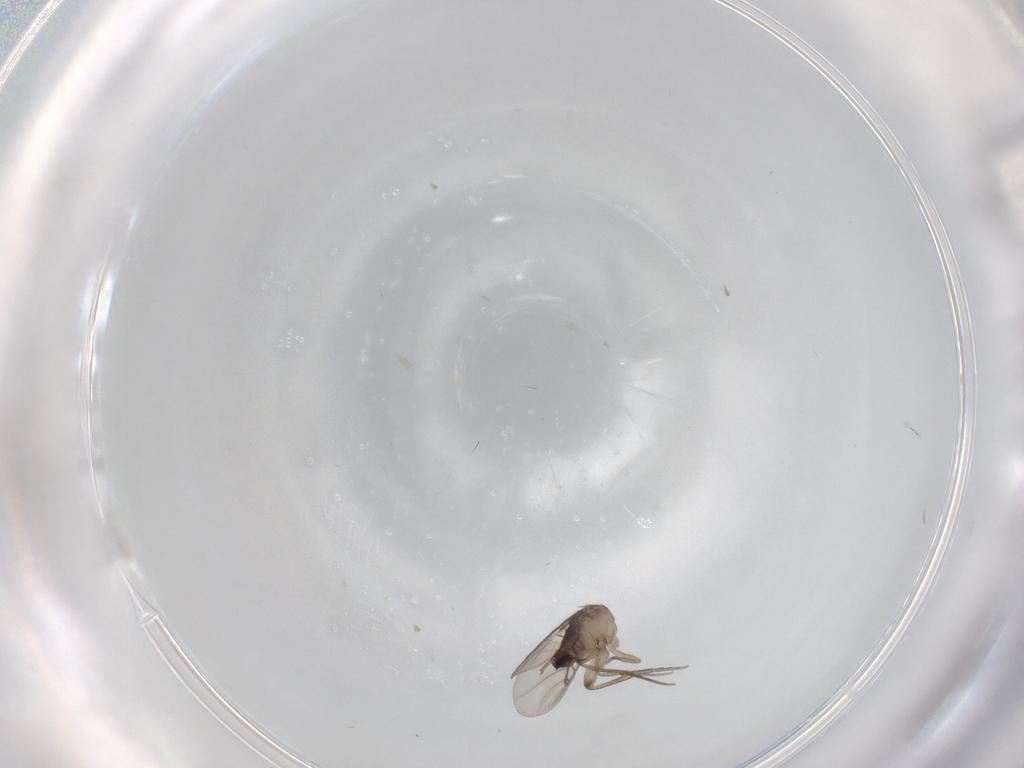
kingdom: Animalia
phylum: Arthropoda
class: Insecta
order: Diptera
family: Phoridae
